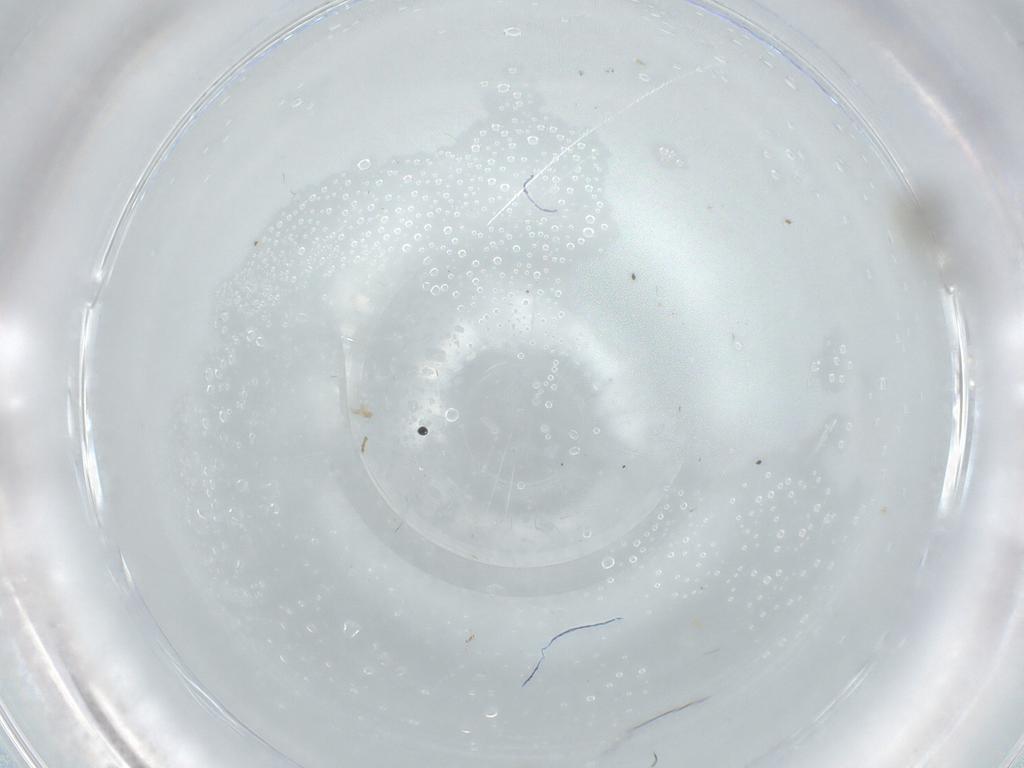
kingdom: Animalia
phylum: Arthropoda
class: Insecta
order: Diptera
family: Cecidomyiidae
